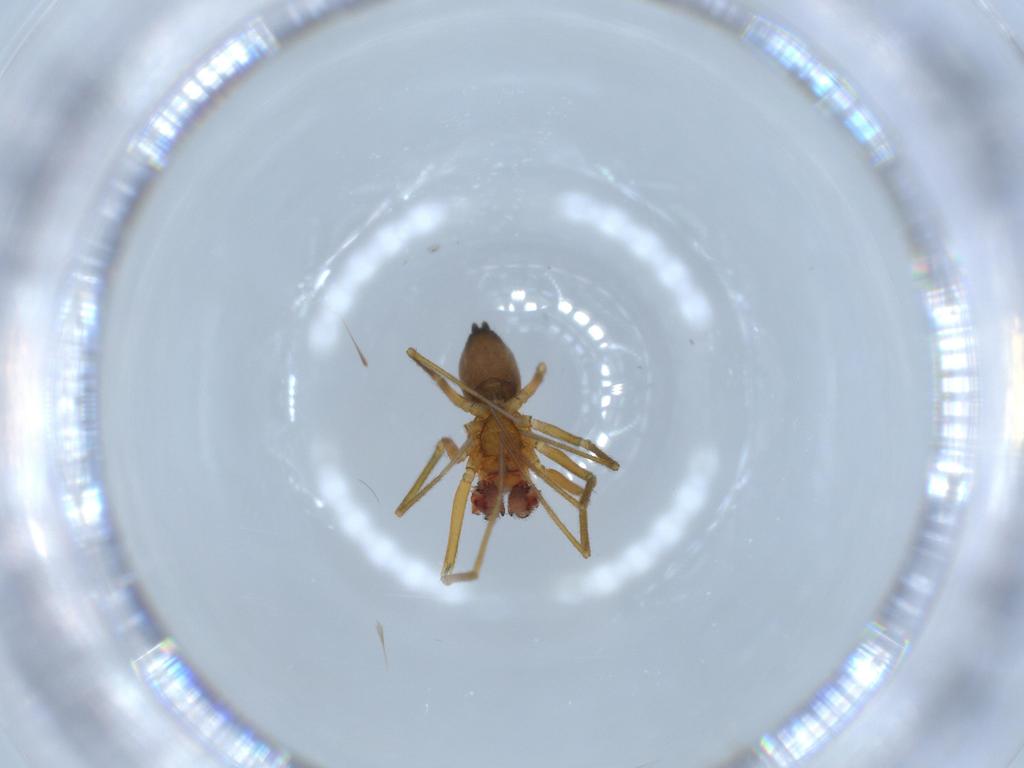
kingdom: Animalia
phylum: Arthropoda
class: Arachnida
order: Araneae
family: Linyphiidae
